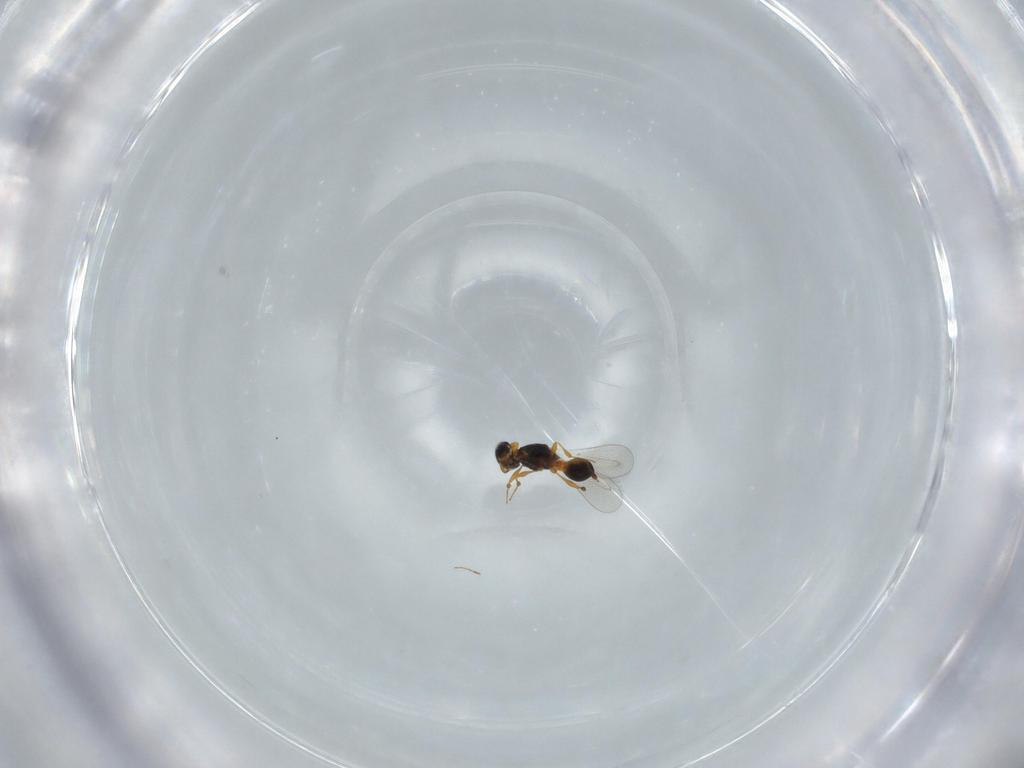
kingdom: Animalia
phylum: Arthropoda
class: Insecta
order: Hymenoptera
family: Platygastridae
